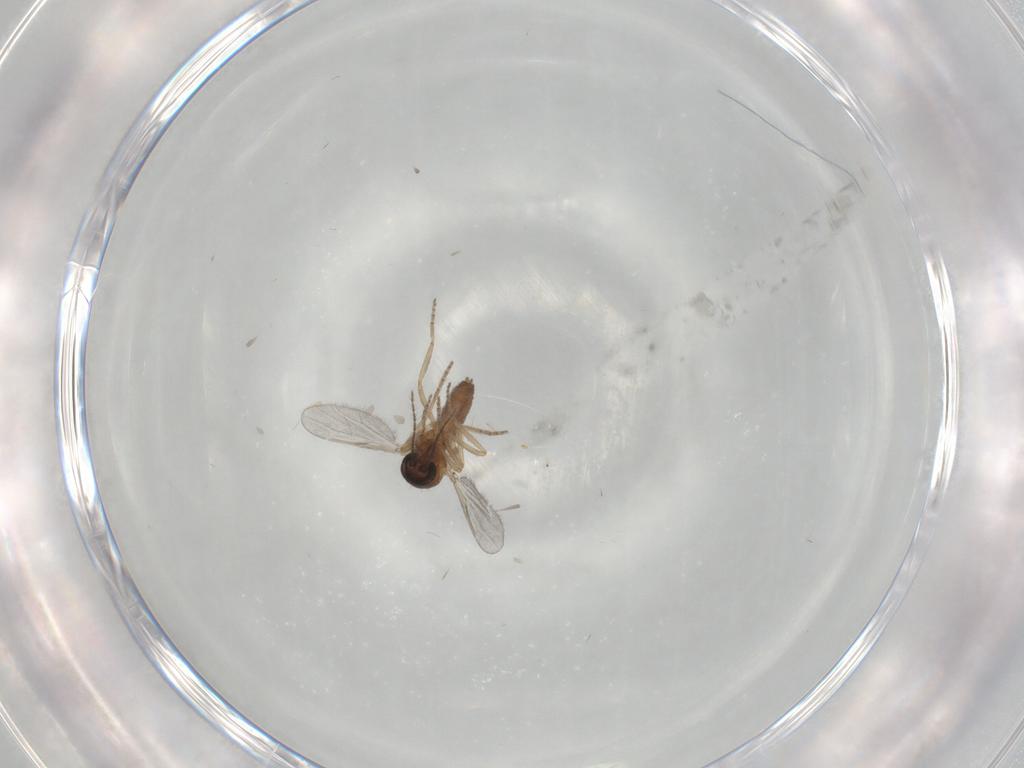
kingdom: Animalia
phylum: Arthropoda
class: Insecta
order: Diptera
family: Ceratopogonidae
